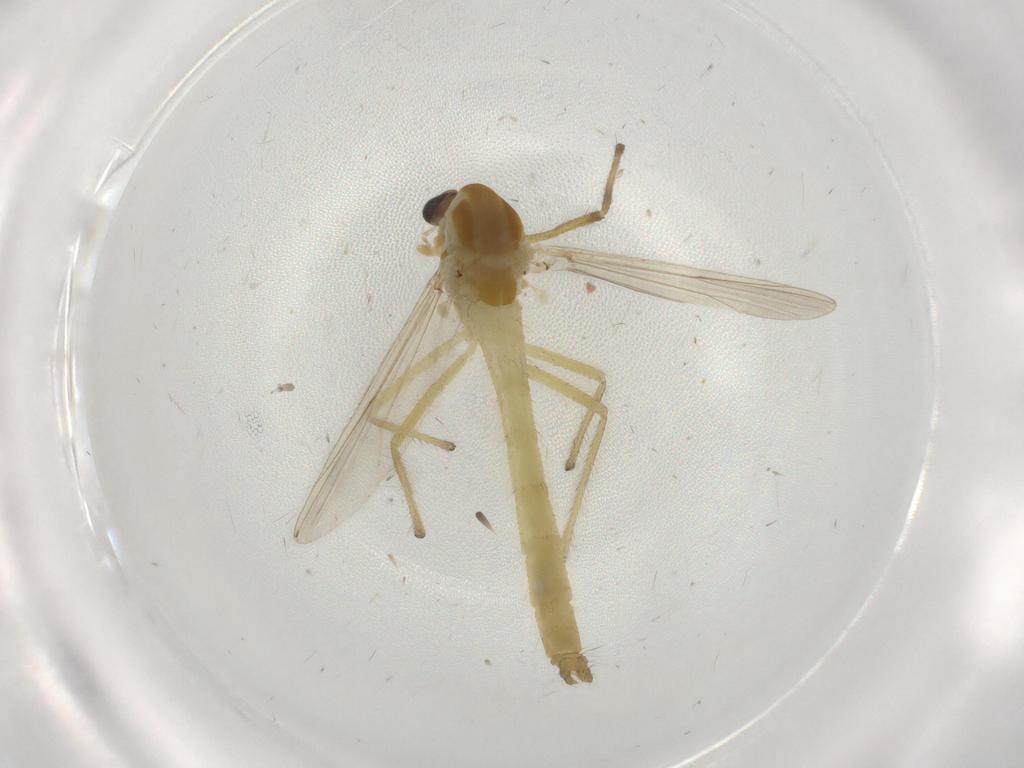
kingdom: Animalia
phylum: Arthropoda
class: Insecta
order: Diptera
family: Chironomidae
